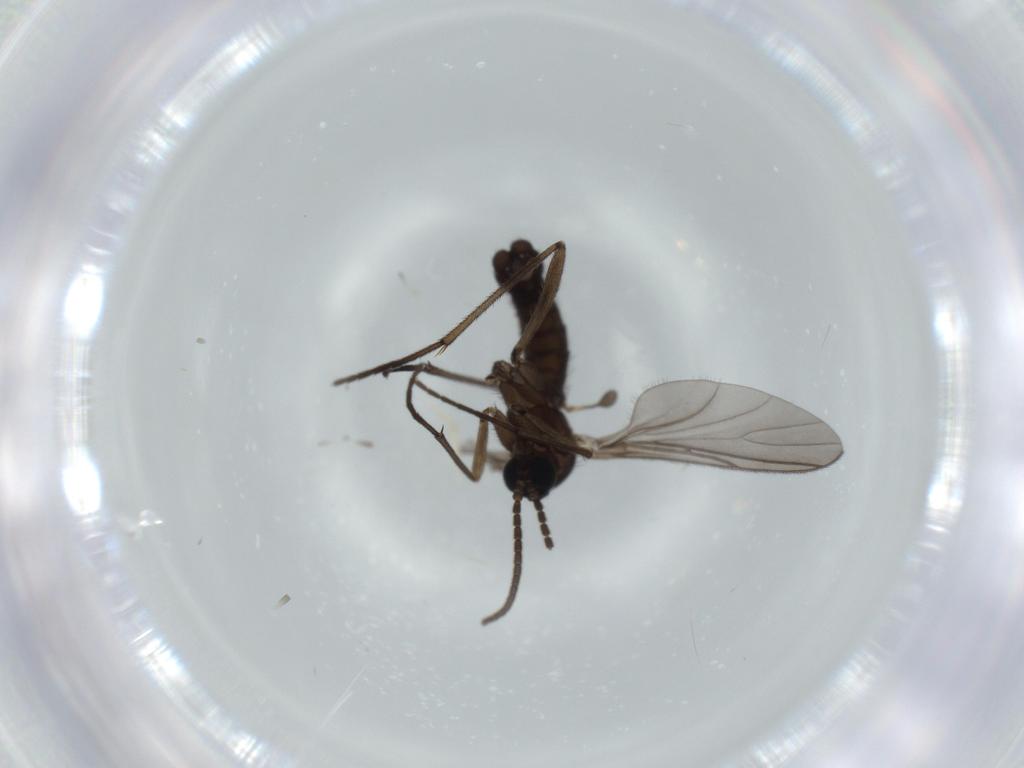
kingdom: Animalia
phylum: Arthropoda
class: Insecta
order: Diptera
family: Sciaridae
